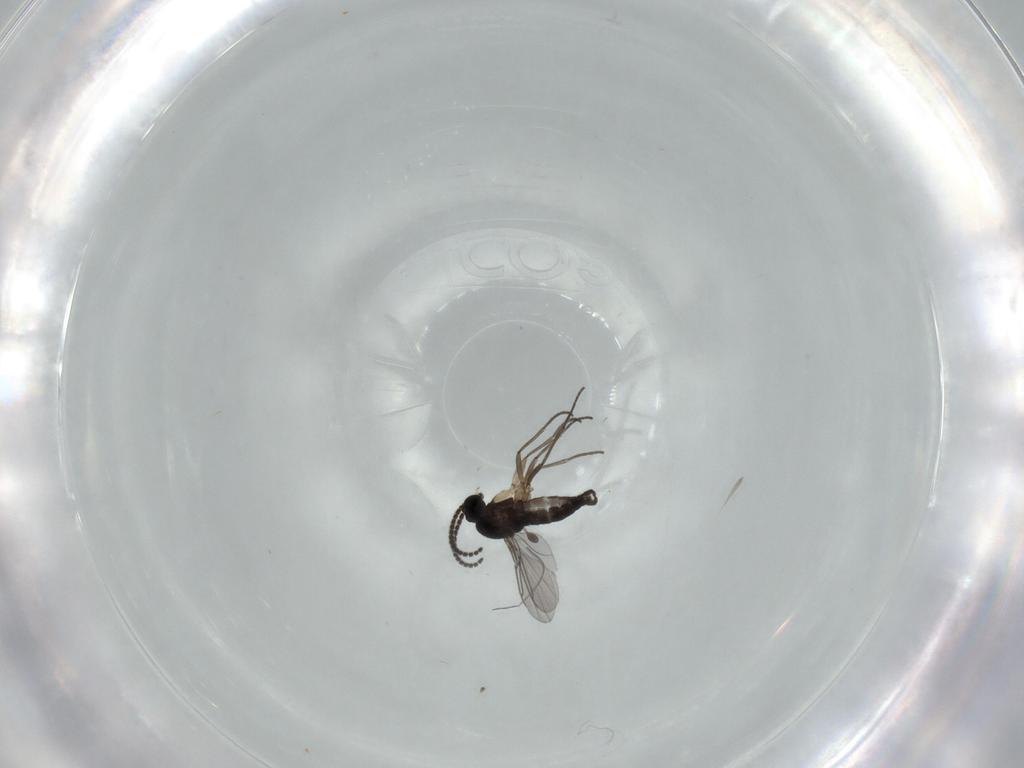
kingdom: Animalia
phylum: Arthropoda
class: Insecta
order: Diptera
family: Sciaridae
